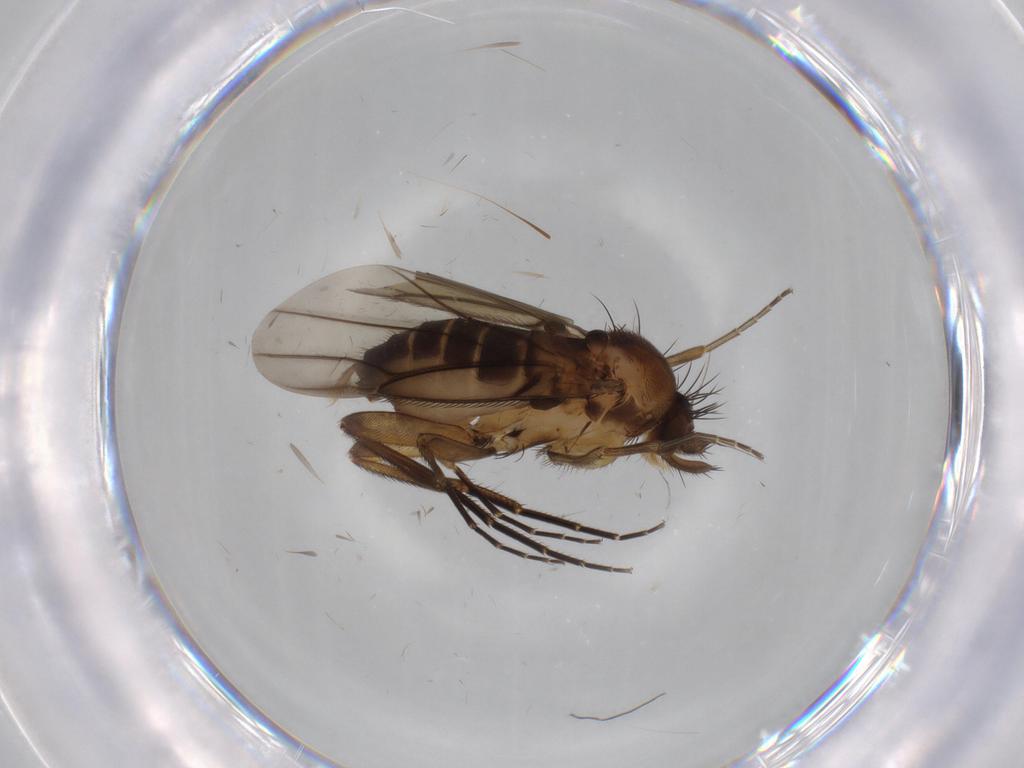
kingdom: Animalia
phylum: Arthropoda
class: Insecta
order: Diptera
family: Phoridae
